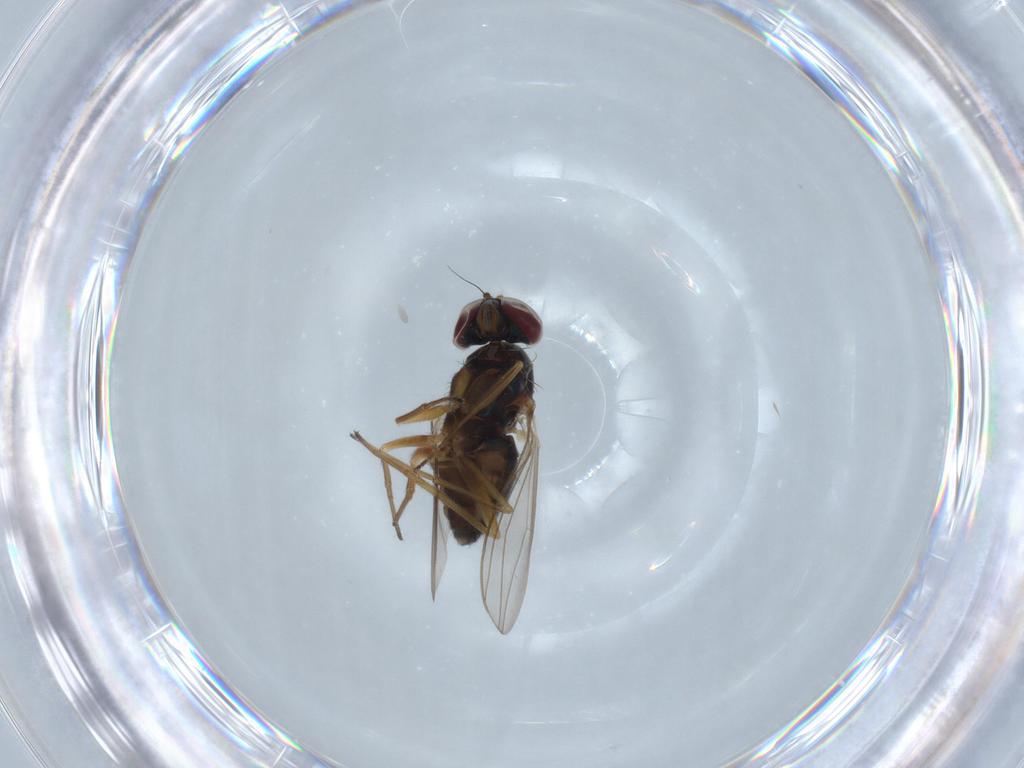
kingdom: Animalia
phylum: Arthropoda
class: Insecta
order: Diptera
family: Dolichopodidae
